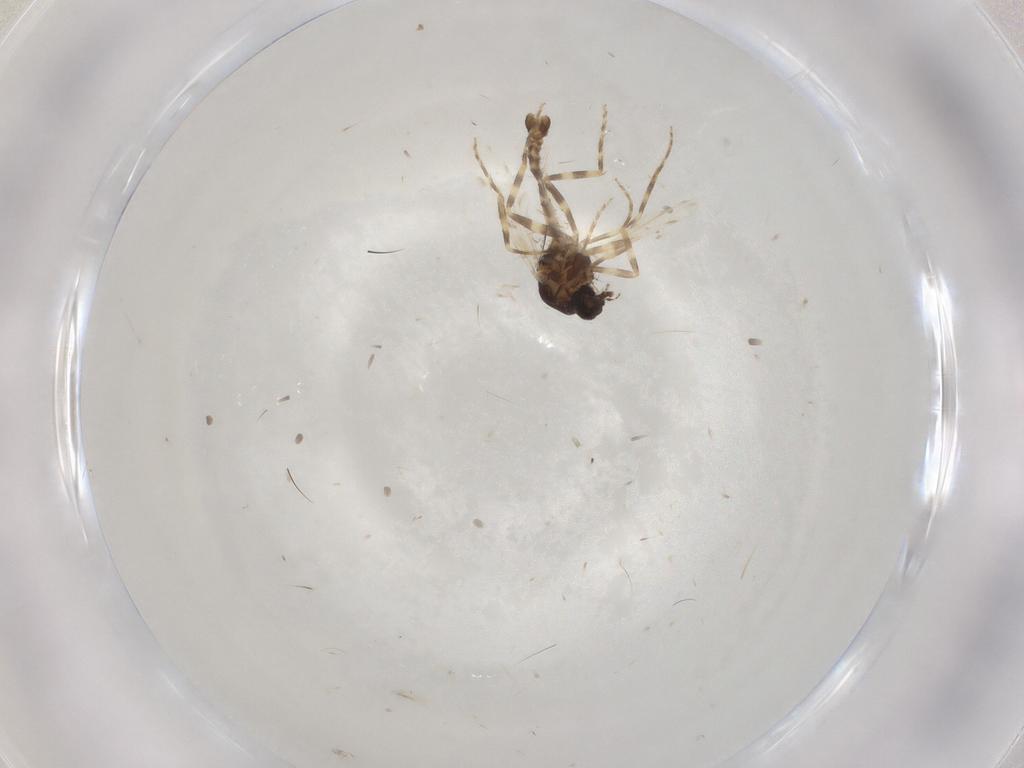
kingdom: Animalia
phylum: Arthropoda
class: Insecta
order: Diptera
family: Ceratopogonidae
